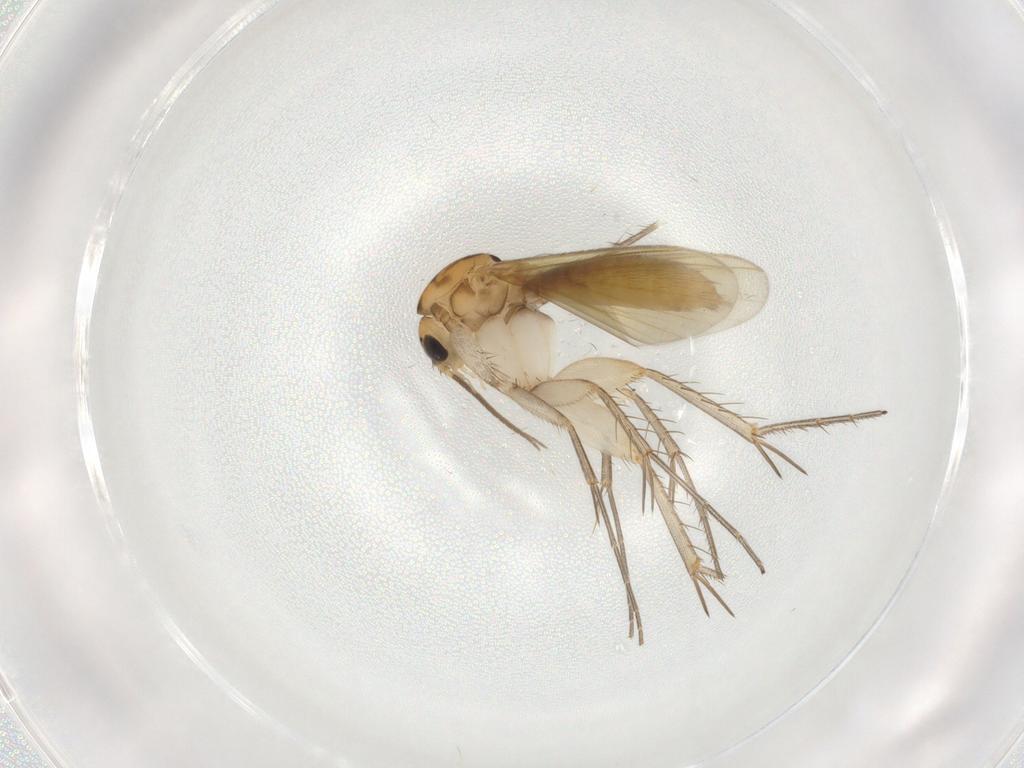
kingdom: Animalia
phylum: Arthropoda
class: Insecta
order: Diptera
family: Mycetophilidae
